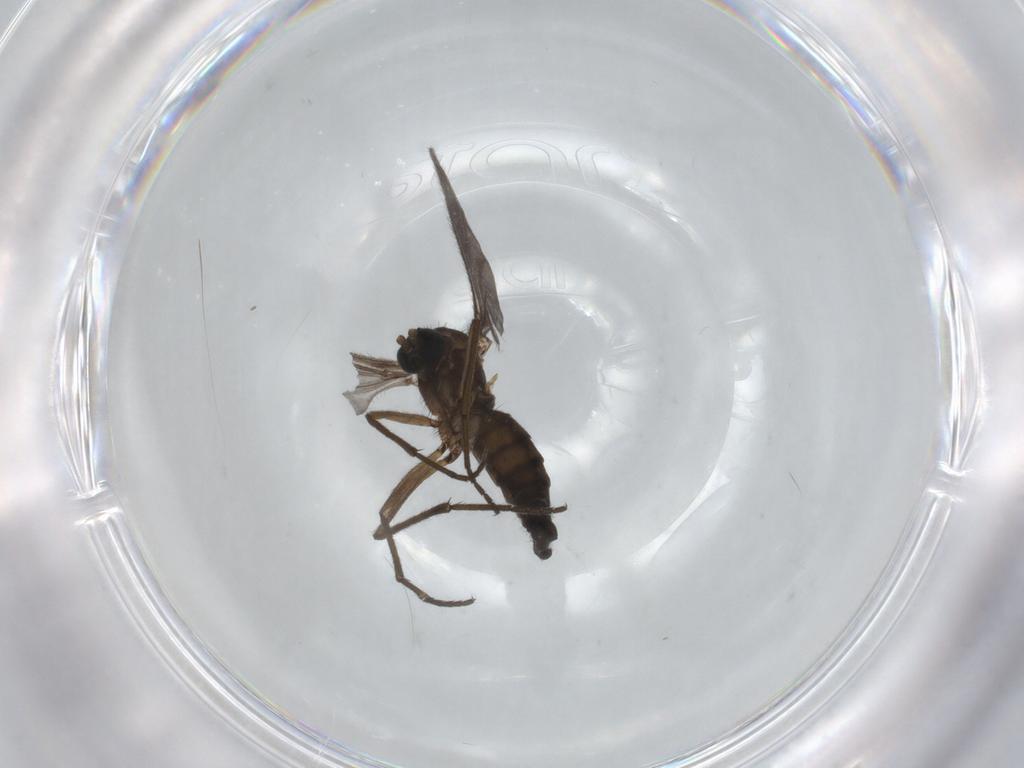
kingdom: Animalia
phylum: Arthropoda
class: Insecta
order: Diptera
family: Sciaridae
